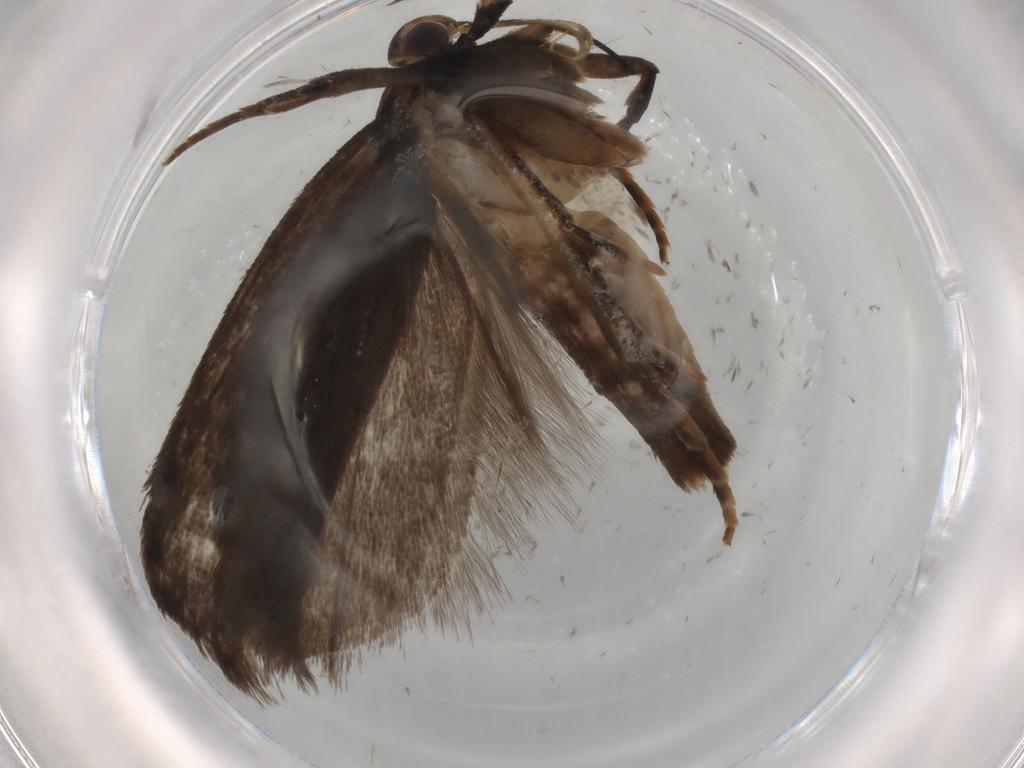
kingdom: Animalia
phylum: Arthropoda
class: Insecta
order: Lepidoptera
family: Gelechiidae
